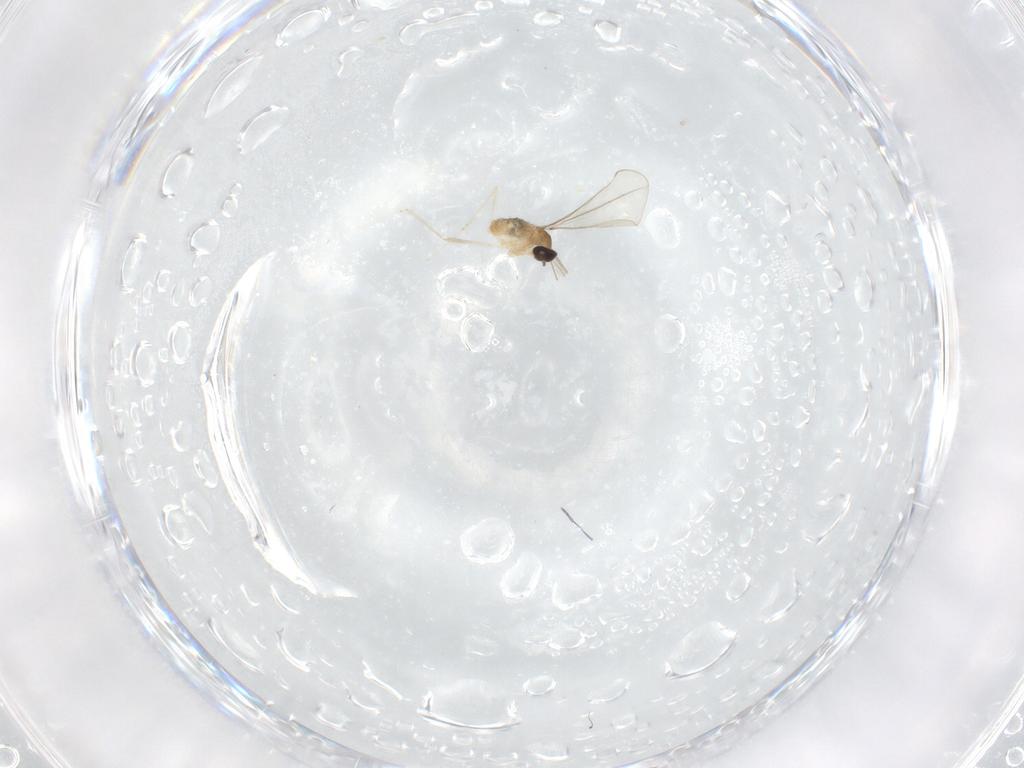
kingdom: Animalia
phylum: Arthropoda
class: Insecta
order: Diptera
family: Cecidomyiidae
